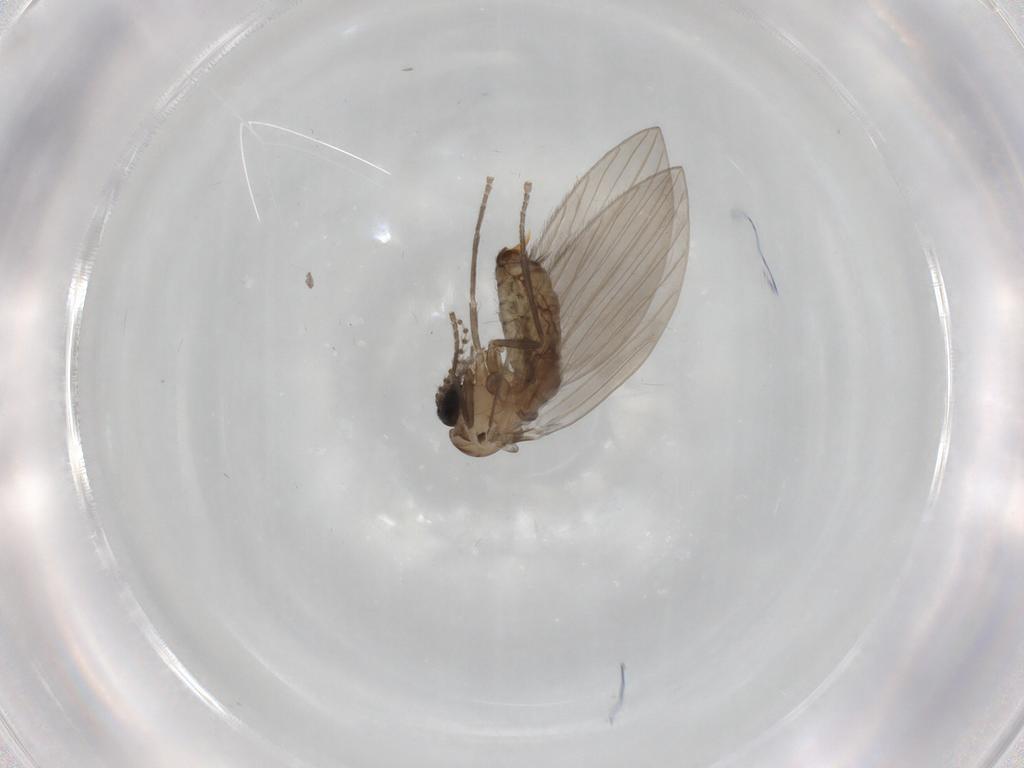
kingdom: Animalia
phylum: Arthropoda
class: Insecta
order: Diptera
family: Psychodidae
